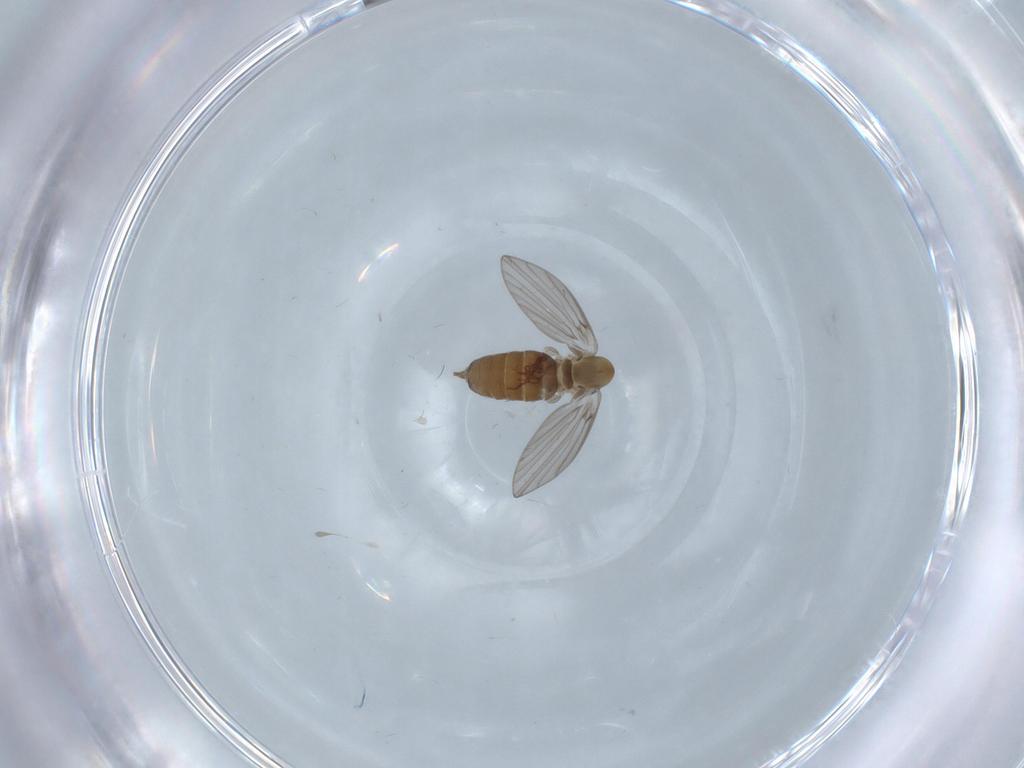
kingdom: Animalia
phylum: Arthropoda
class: Insecta
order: Diptera
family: Psychodidae
